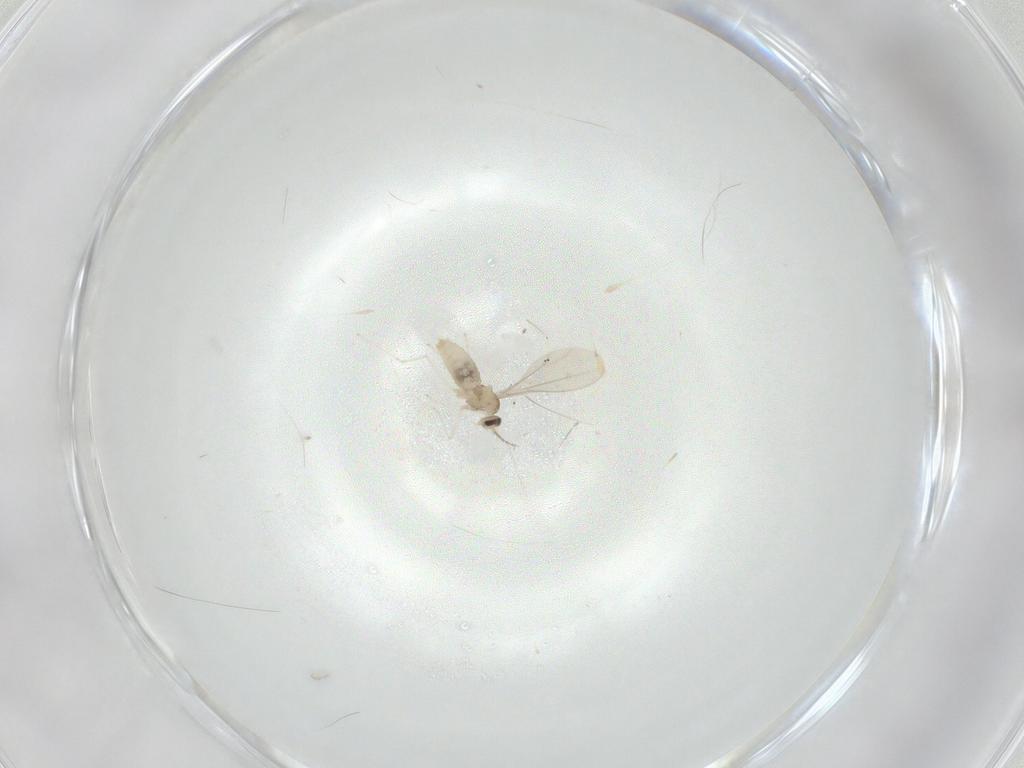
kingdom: Animalia
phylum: Arthropoda
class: Insecta
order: Diptera
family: Cecidomyiidae
